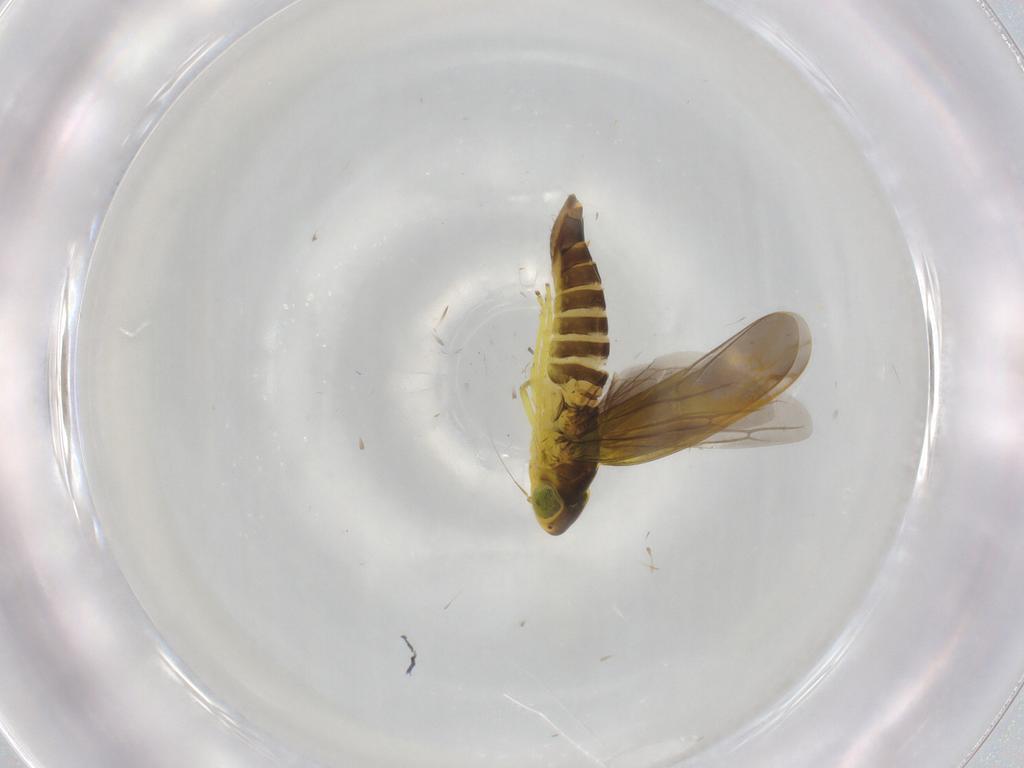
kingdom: Animalia
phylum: Arthropoda
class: Insecta
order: Hemiptera
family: Cicadellidae
